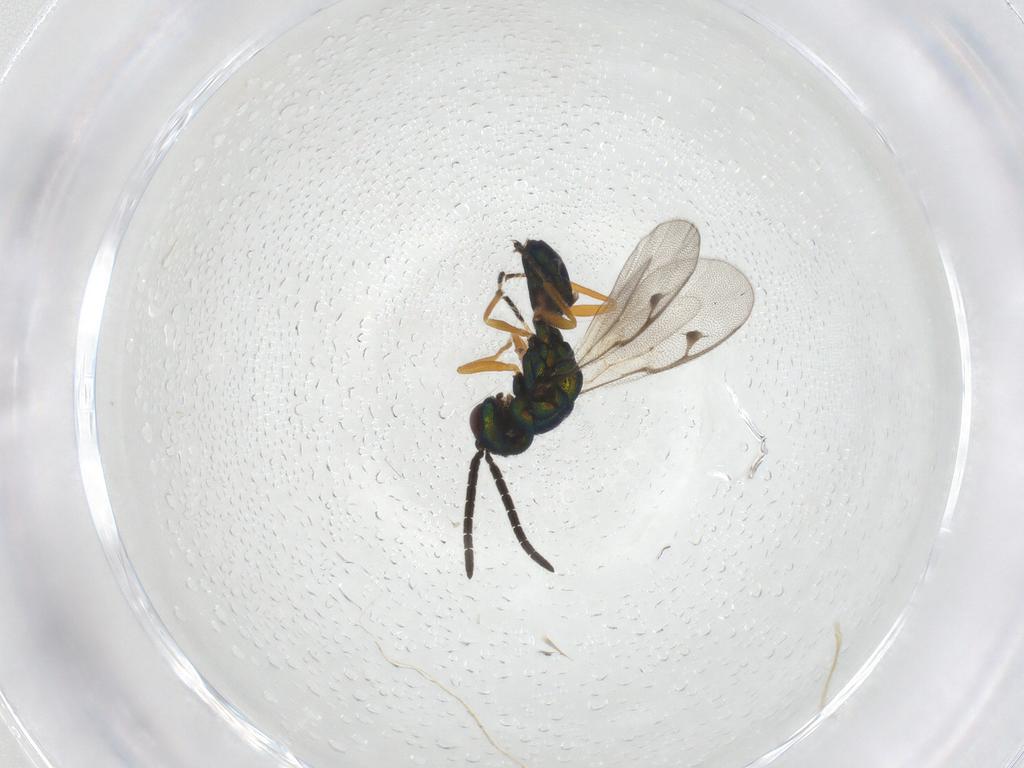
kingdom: Animalia
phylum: Arthropoda
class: Insecta
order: Hymenoptera
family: Pteromalidae
